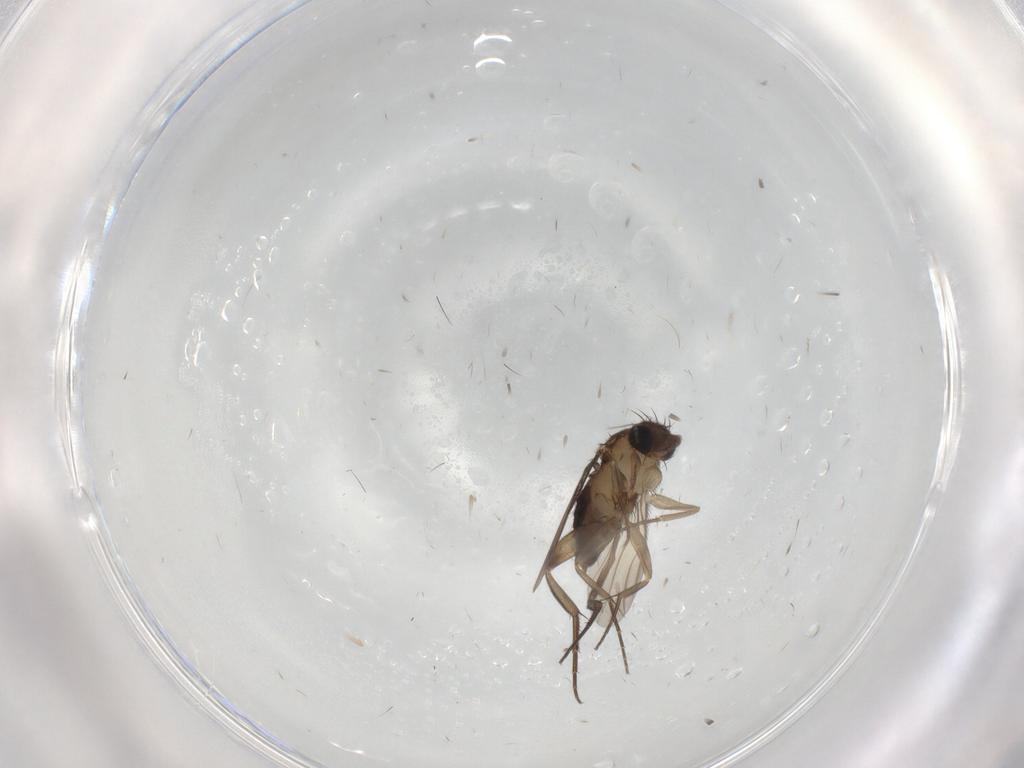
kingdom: Animalia
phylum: Arthropoda
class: Insecta
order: Diptera
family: Phoridae
